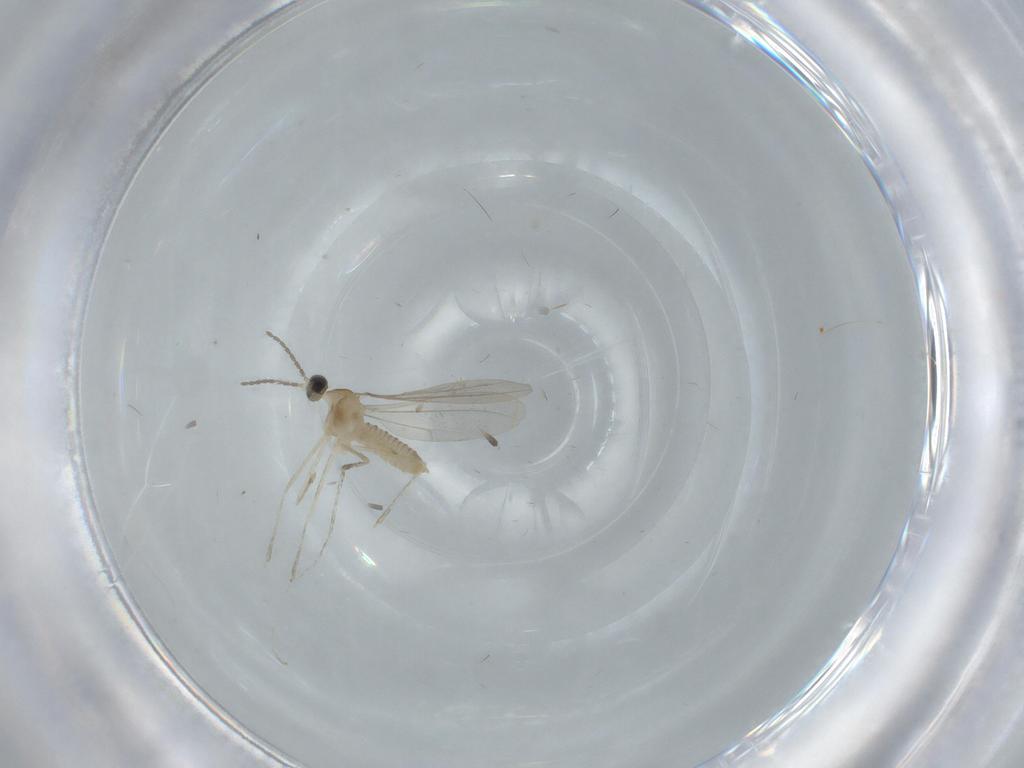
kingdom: Animalia
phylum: Arthropoda
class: Insecta
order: Diptera
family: Cecidomyiidae
